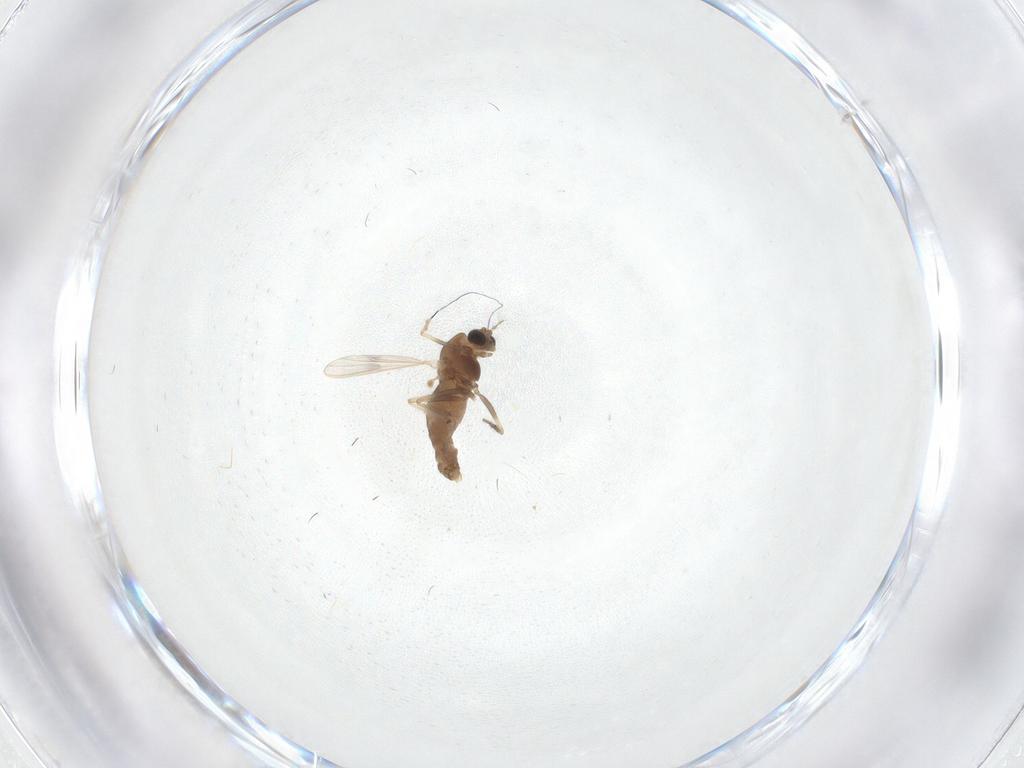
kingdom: Animalia
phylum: Arthropoda
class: Insecta
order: Diptera
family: Chironomidae
